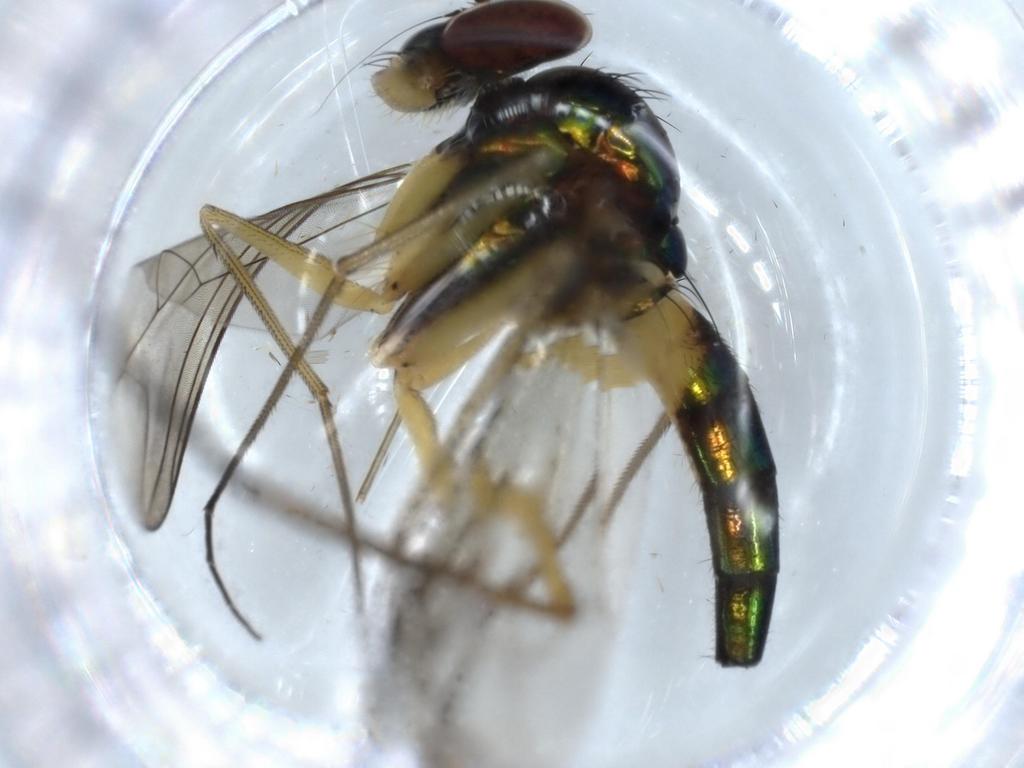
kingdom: Animalia
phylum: Arthropoda
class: Insecta
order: Diptera
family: Dolichopodidae
